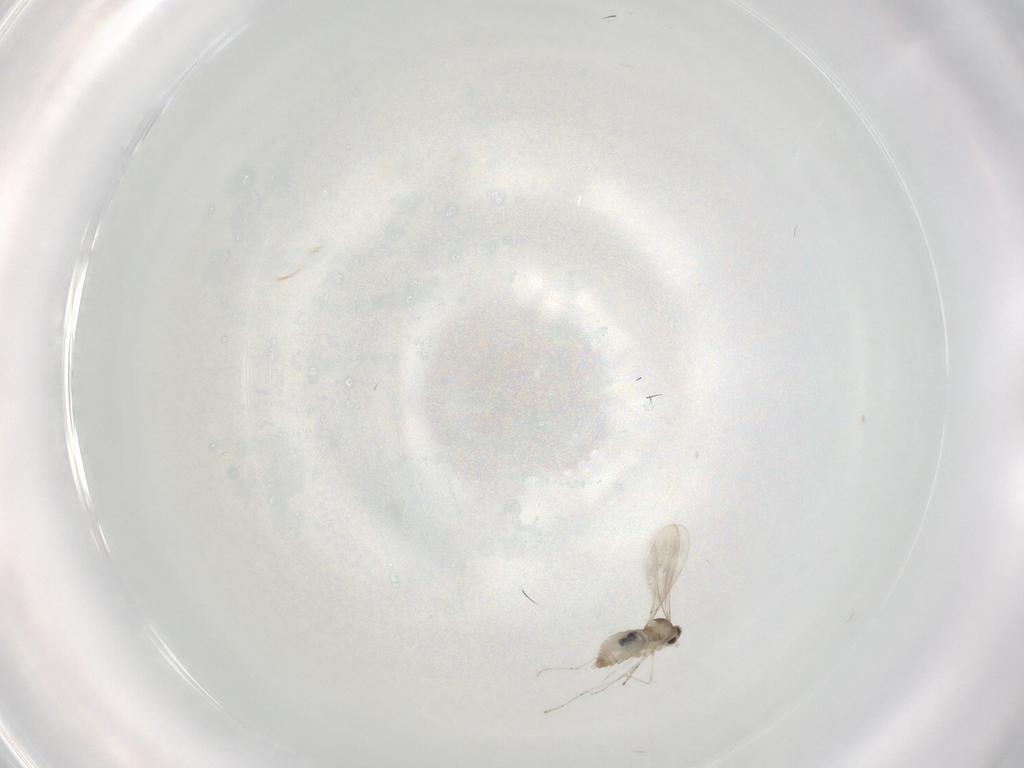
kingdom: Animalia
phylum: Arthropoda
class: Insecta
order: Diptera
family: Cecidomyiidae
